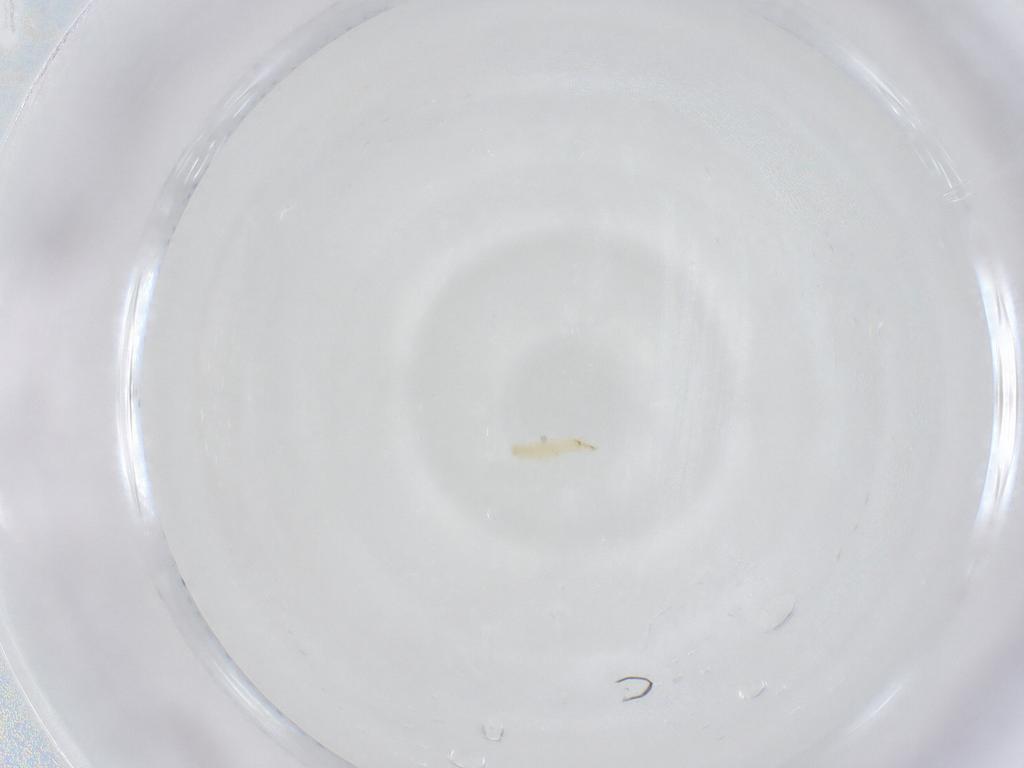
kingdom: Animalia
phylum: Arthropoda
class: Insecta
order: Diptera
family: Sarcophagidae
